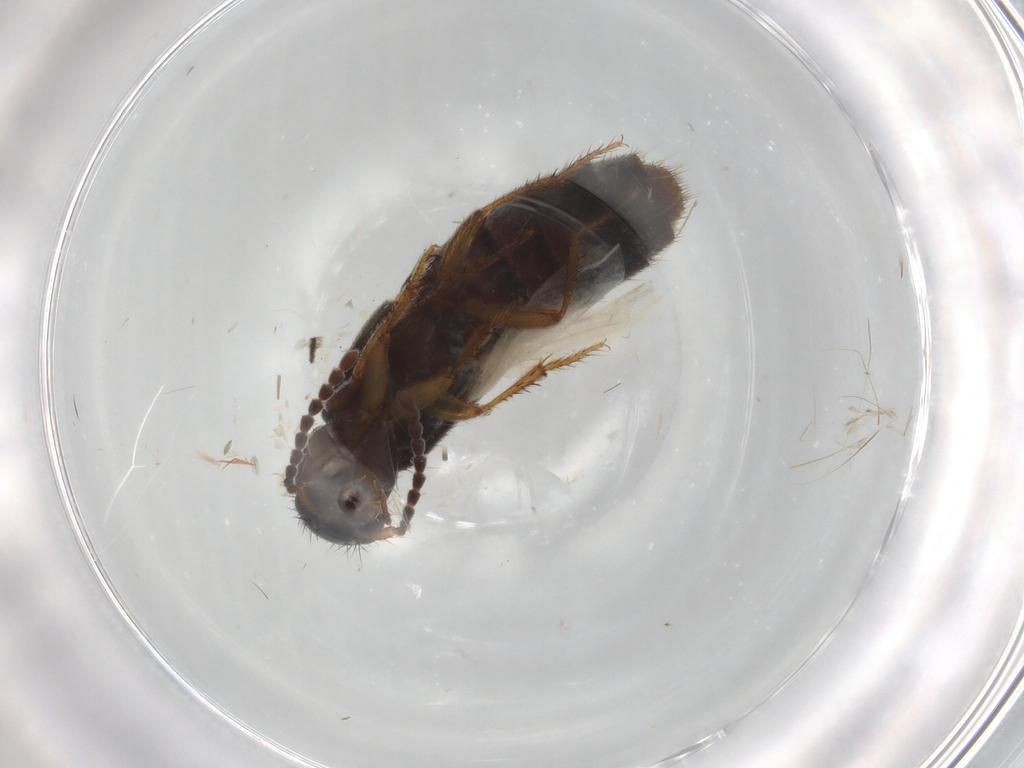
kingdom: Animalia
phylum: Arthropoda
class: Insecta
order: Coleoptera
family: Staphylinidae
